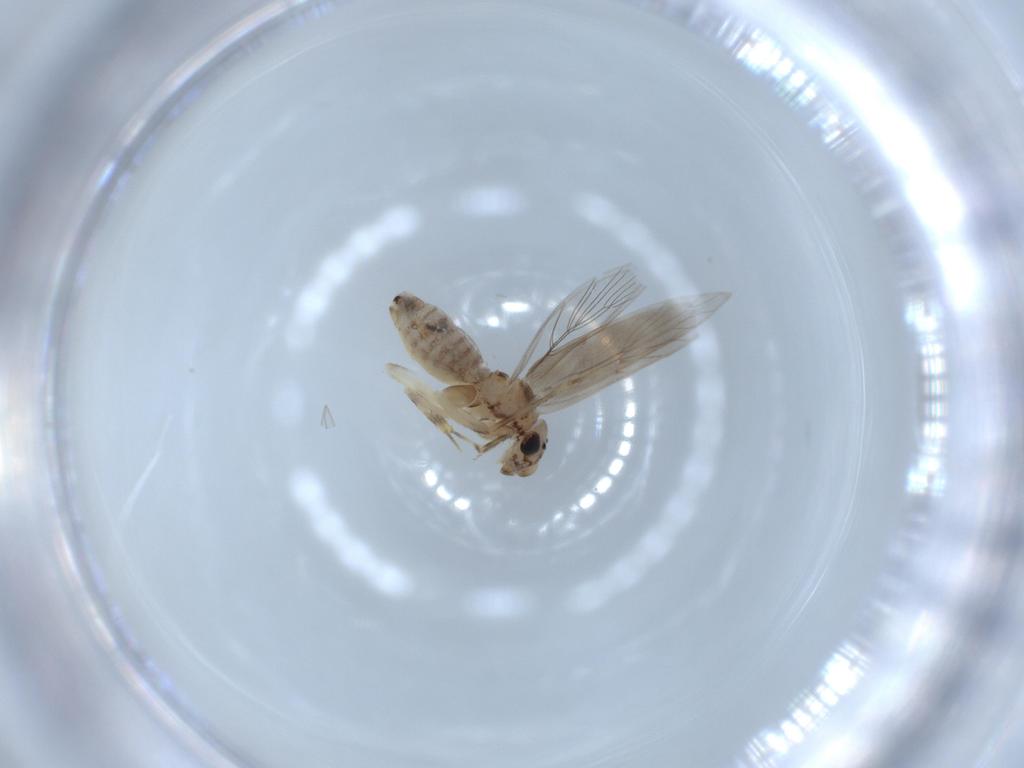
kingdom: Animalia
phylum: Arthropoda
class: Insecta
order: Psocodea
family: Lepidopsocidae
